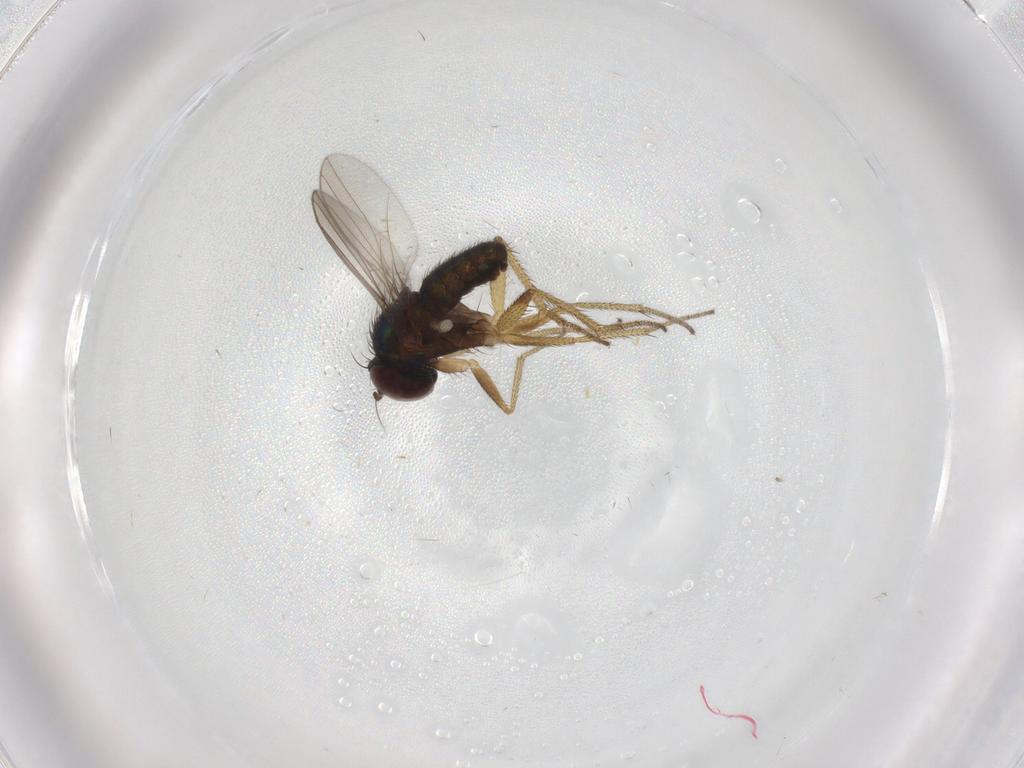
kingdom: Animalia
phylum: Arthropoda
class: Insecta
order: Diptera
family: Dolichopodidae
